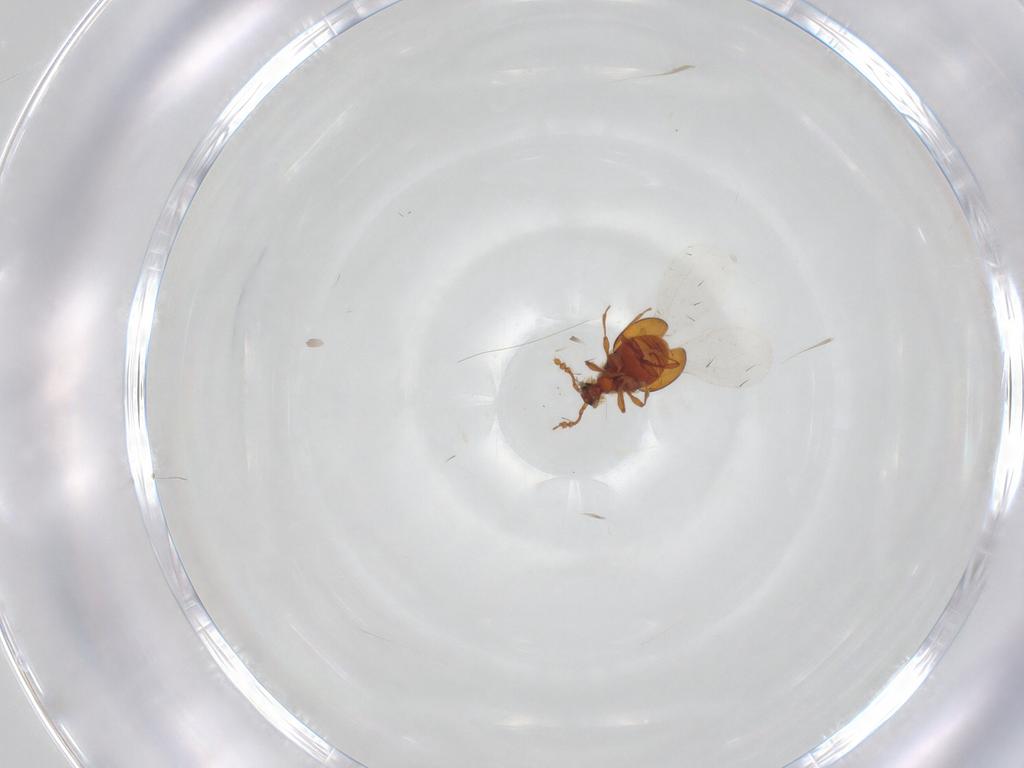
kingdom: Animalia
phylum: Arthropoda
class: Insecta
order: Coleoptera
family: Staphylinidae
